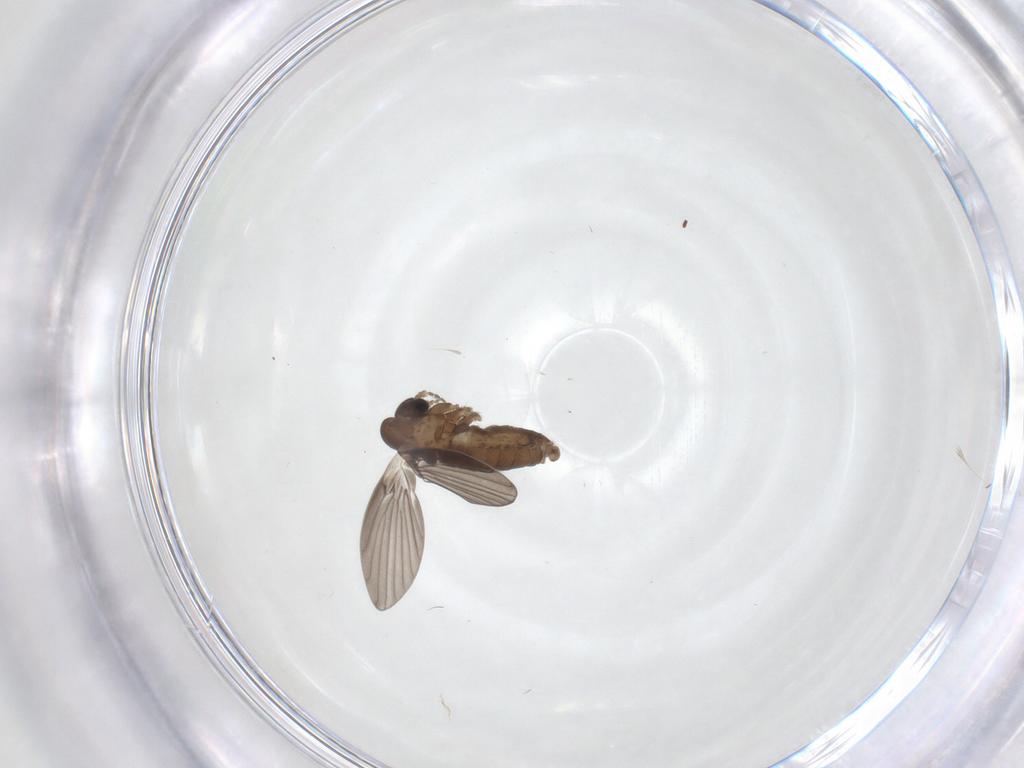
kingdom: Animalia
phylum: Arthropoda
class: Insecta
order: Diptera
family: Psychodidae
